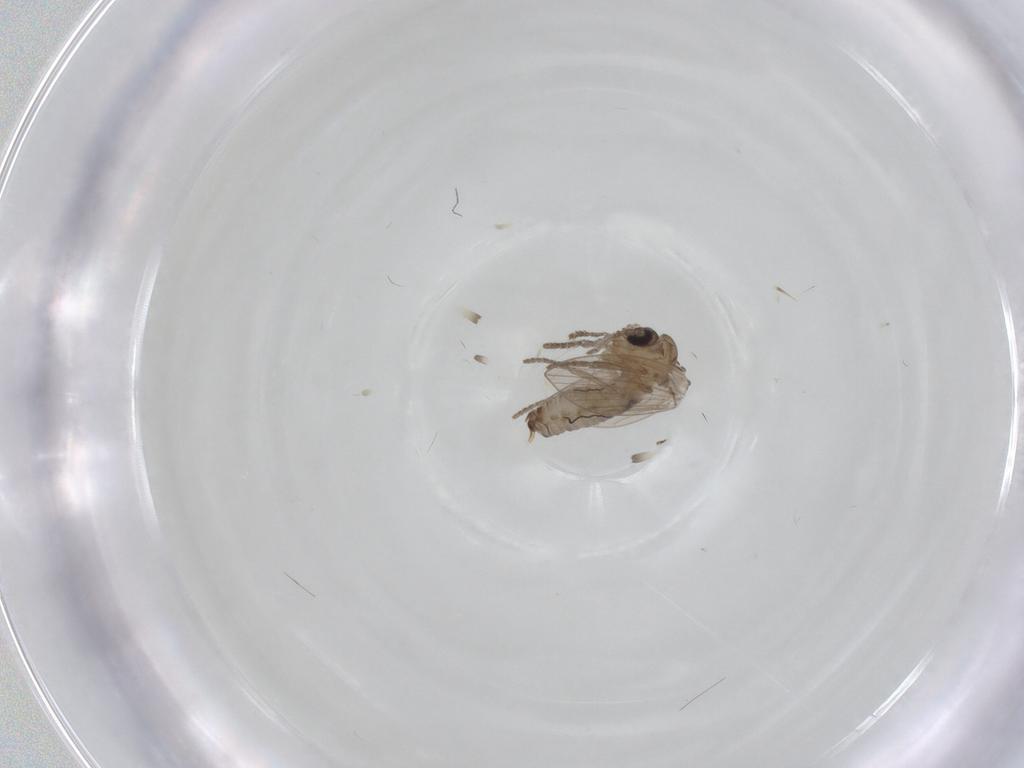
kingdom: Animalia
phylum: Arthropoda
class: Insecta
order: Diptera
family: Psychodidae
